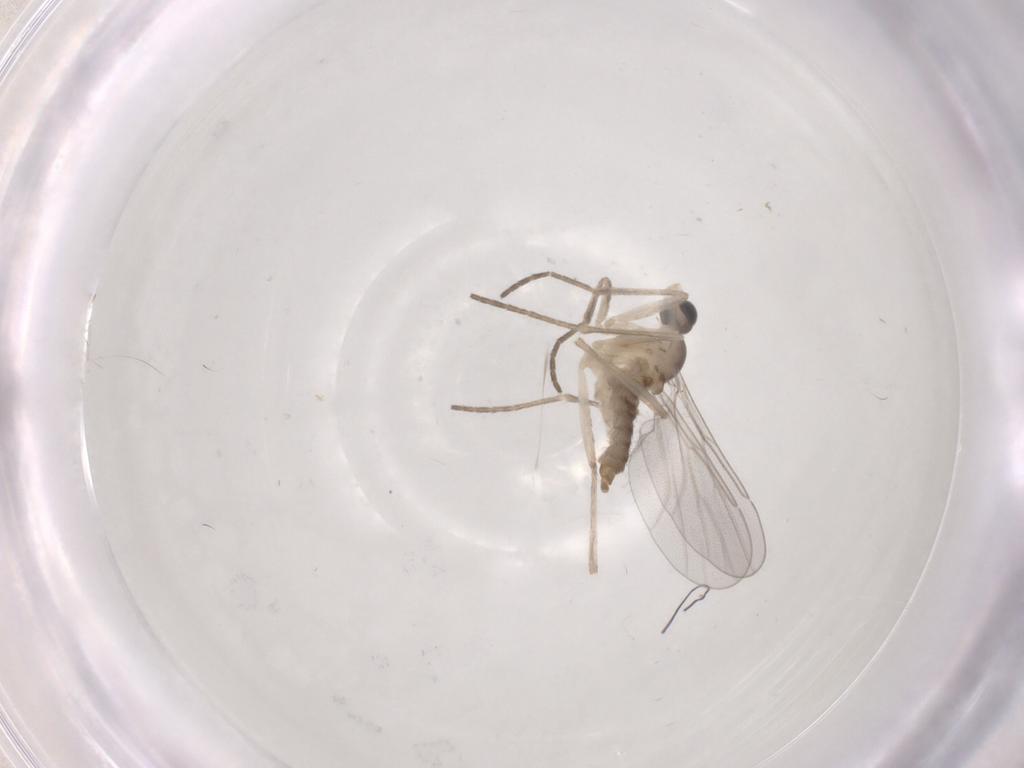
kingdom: Animalia
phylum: Arthropoda
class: Insecta
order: Diptera
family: Cecidomyiidae
